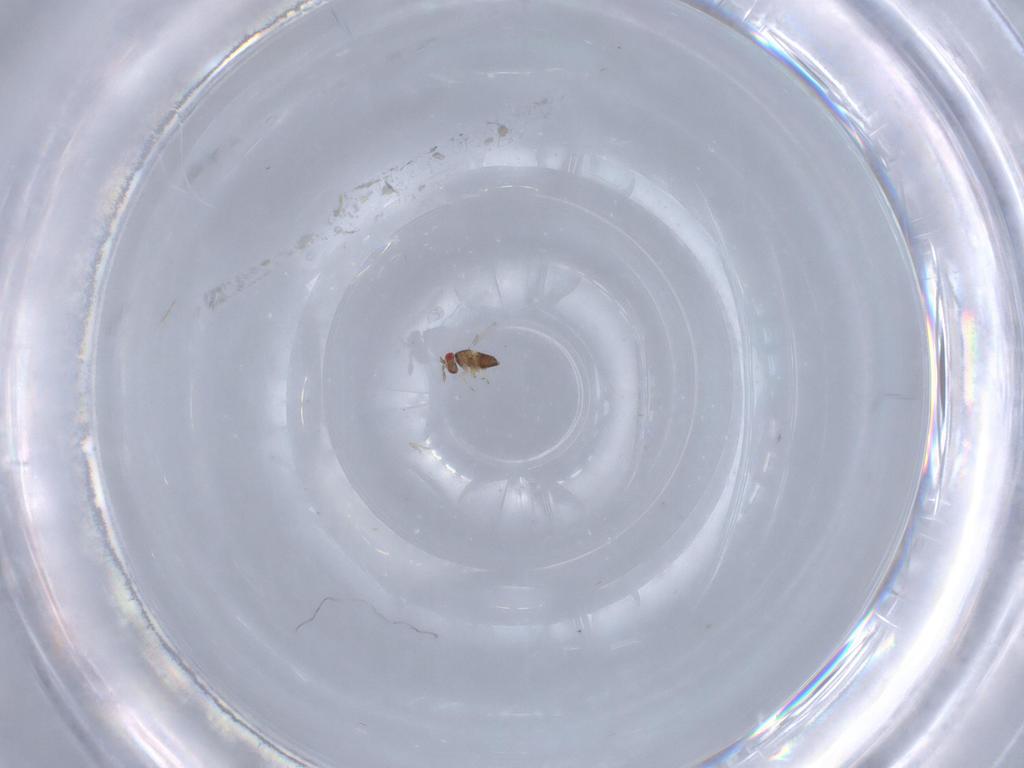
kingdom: Animalia
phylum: Arthropoda
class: Insecta
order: Hymenoptera
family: Trichogrammatidae
